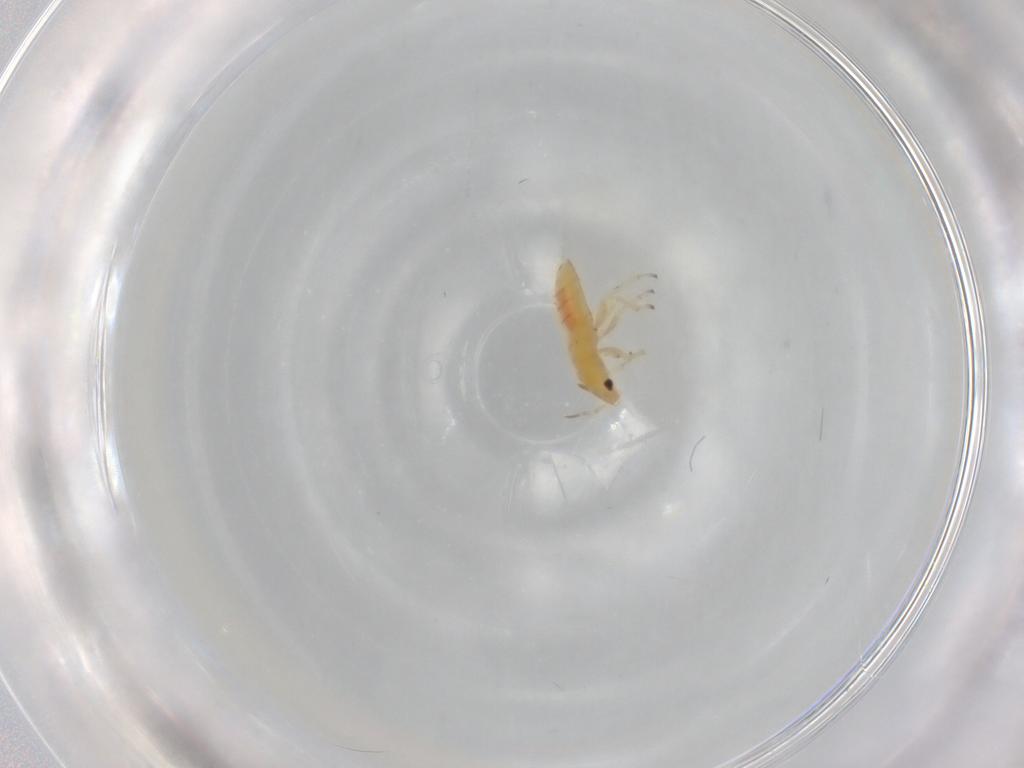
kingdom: Animalia
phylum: Arthropoda
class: Insecta
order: Hemiptera
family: Anthocoridae
